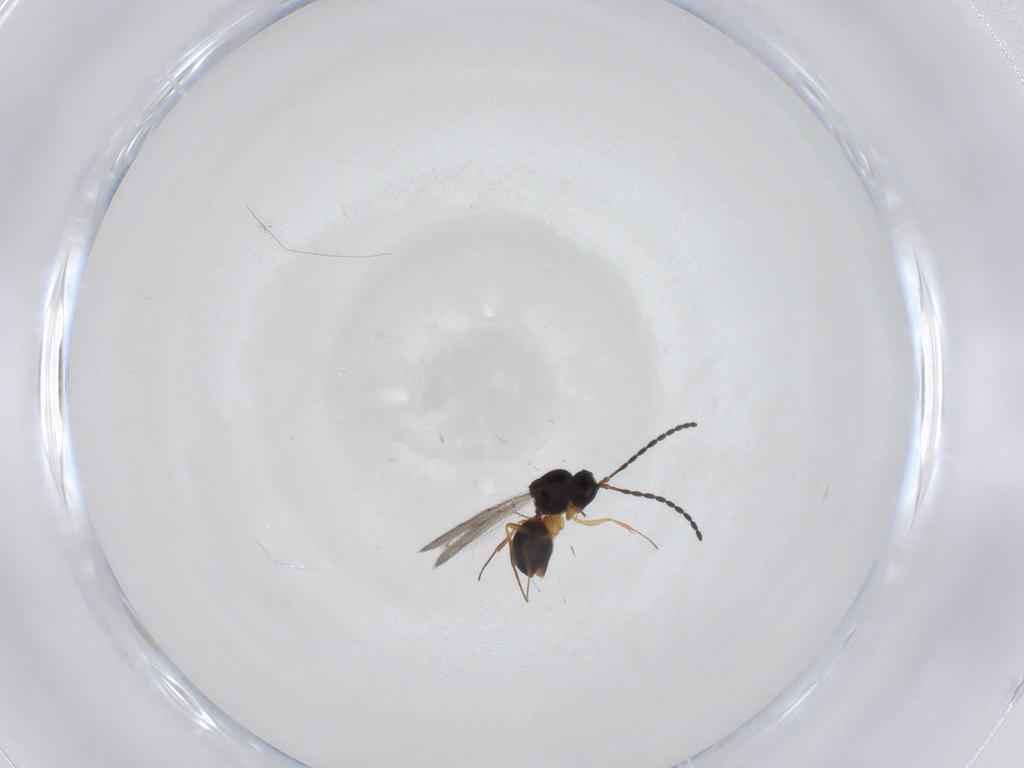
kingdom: Animalia
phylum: Arthropoda
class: Insecta
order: Hymenoptera
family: Figitidae
